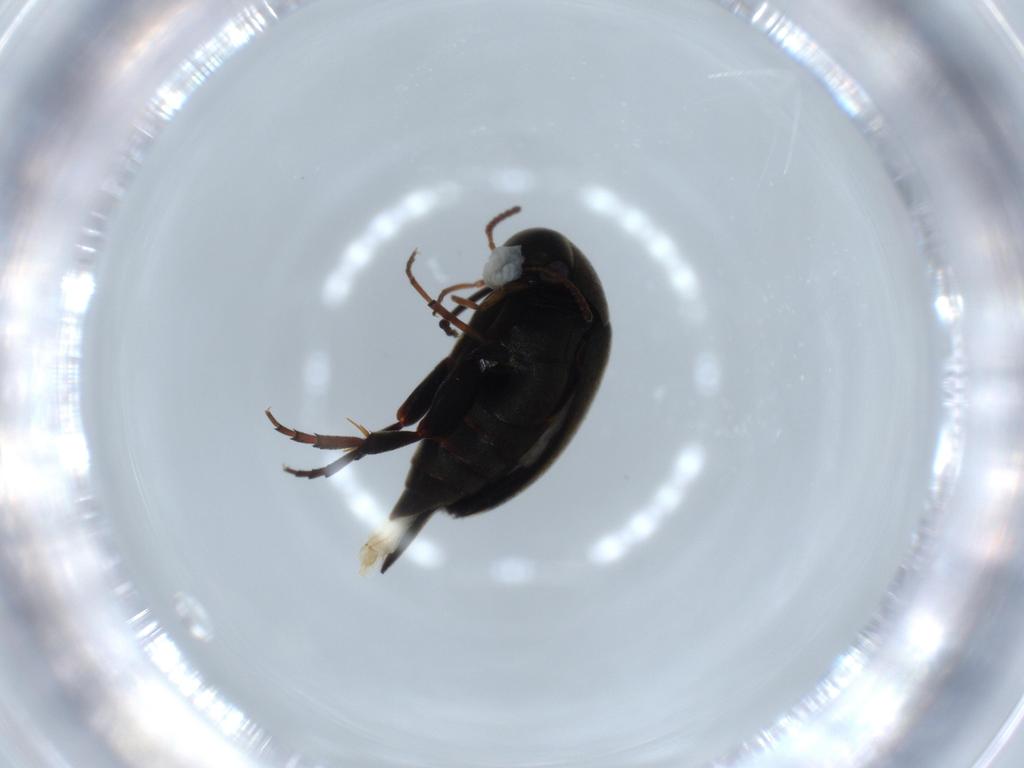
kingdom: Animalia
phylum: Arthropoda
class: Insecta
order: Coleoptera
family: Mordellidae
